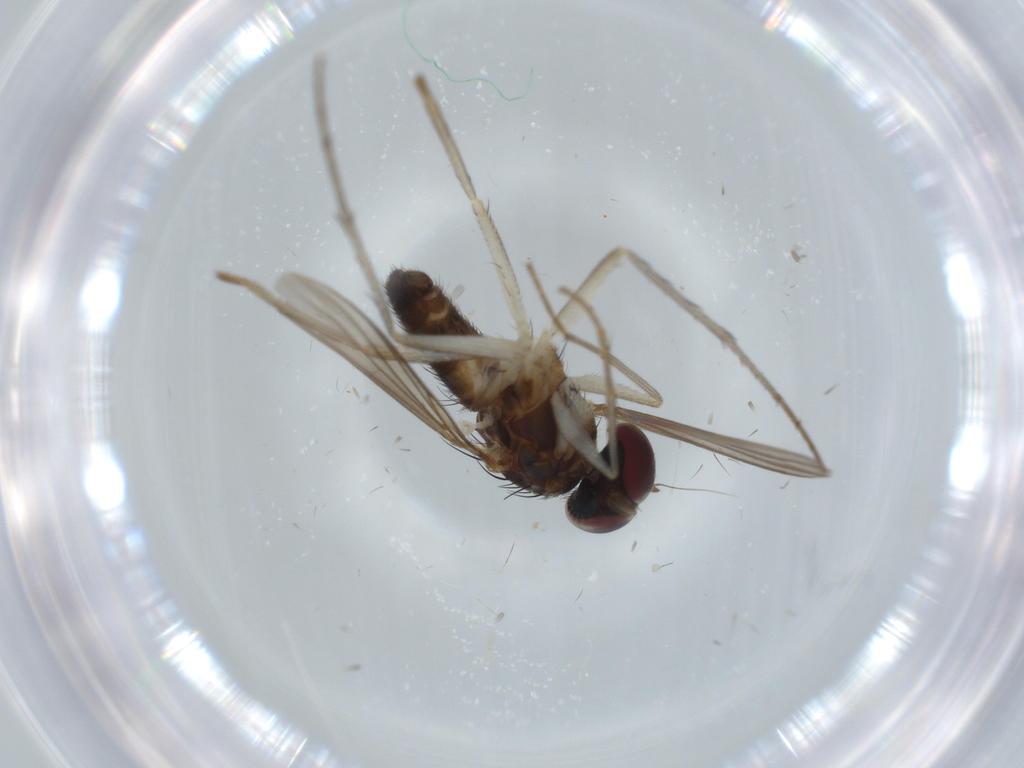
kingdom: Animalia
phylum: Arthropoda
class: Insecta
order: Diptera
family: Dolichopodidae
